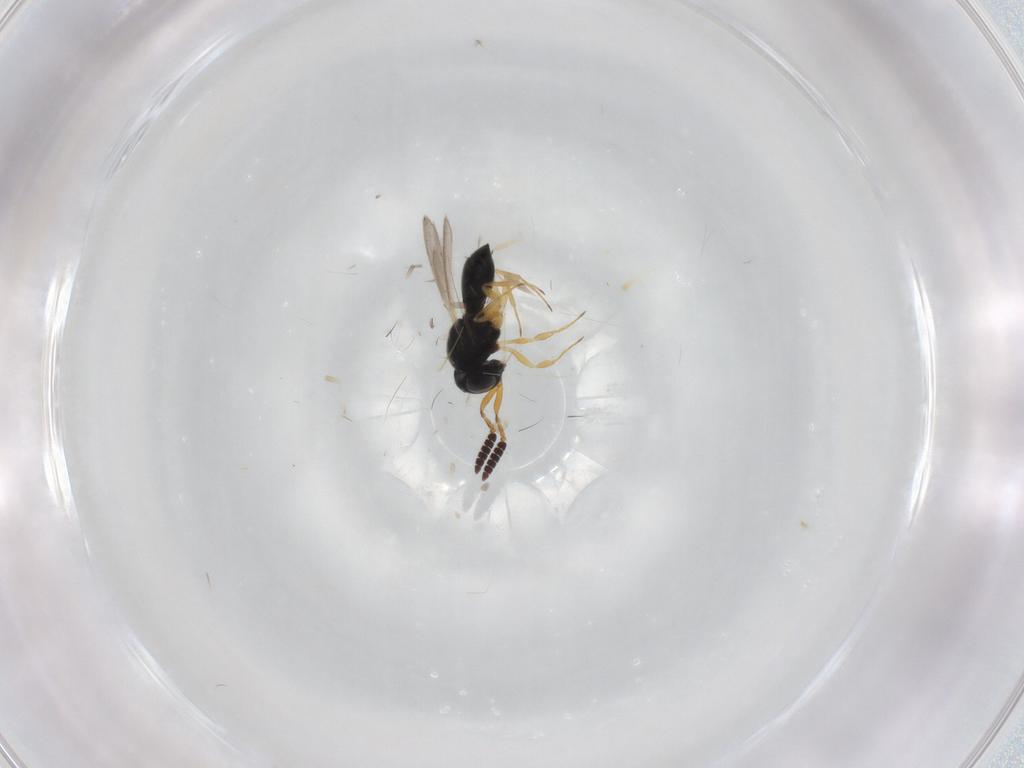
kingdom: Animalia
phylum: Arthropoda
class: Insecta
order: Hymenoptera
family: Scelionidae
